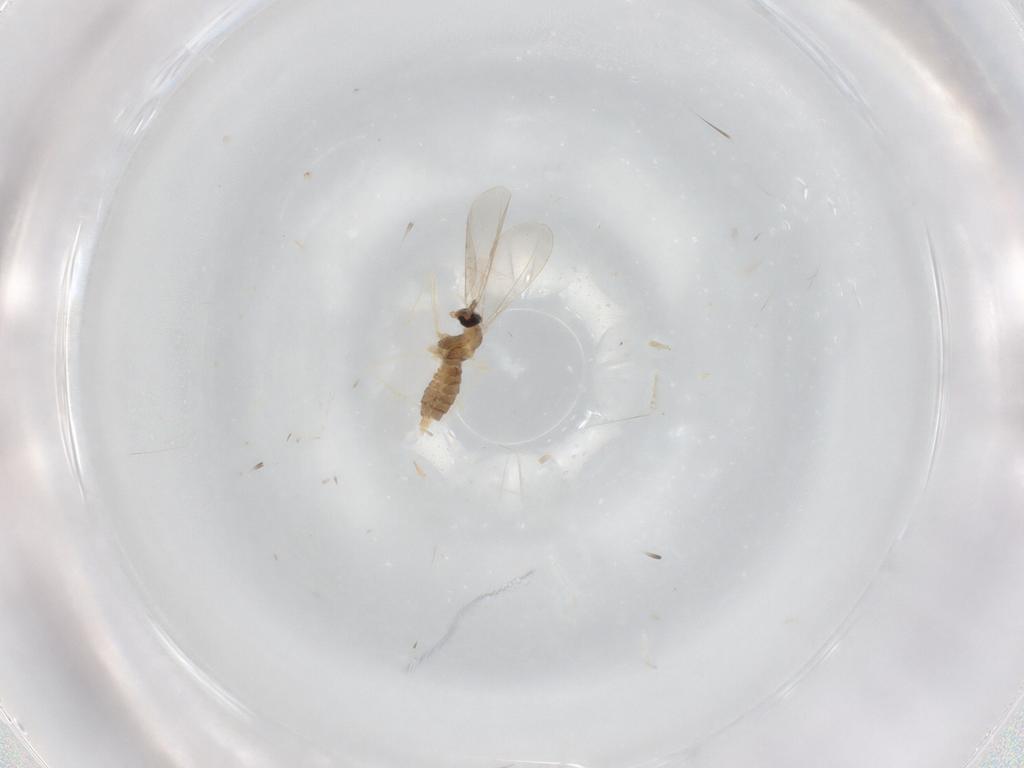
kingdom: Animalia
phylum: Arthropoda
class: Insecta
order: Diptera
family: Cecidomyiidae
